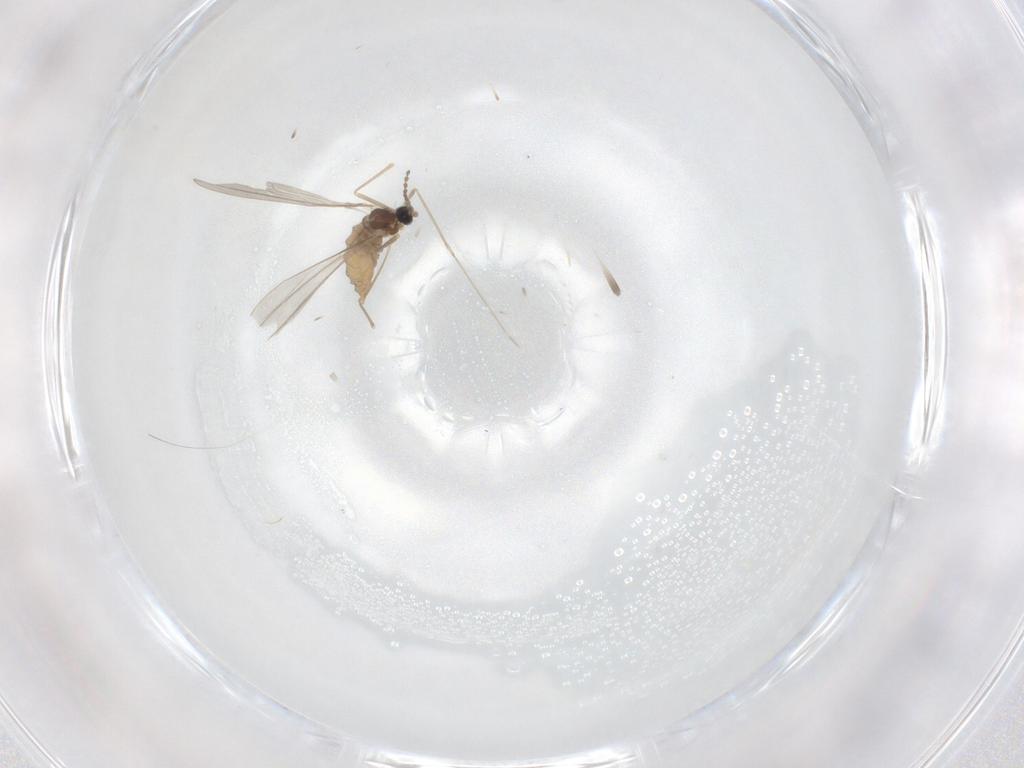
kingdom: Animalia
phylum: Arthropoda
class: Insecta
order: Diptera
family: Cecidomyiidae
